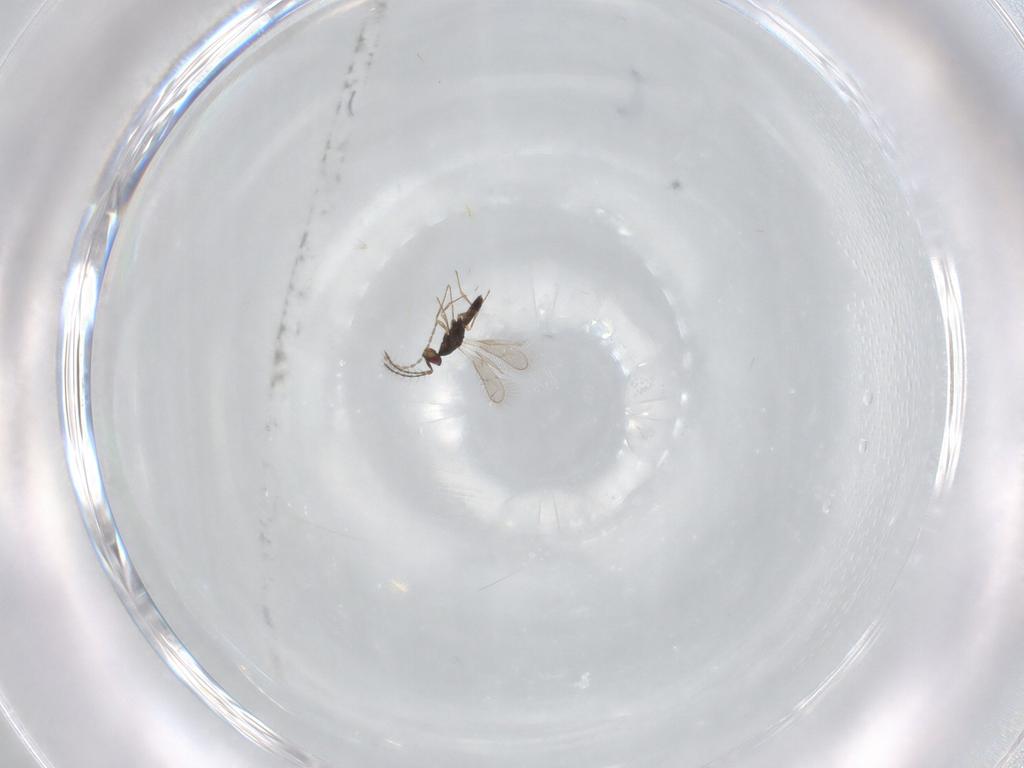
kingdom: Animalia
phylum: Arthropoda
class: Insecta
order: Hymenoptera
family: Pteromalidae
